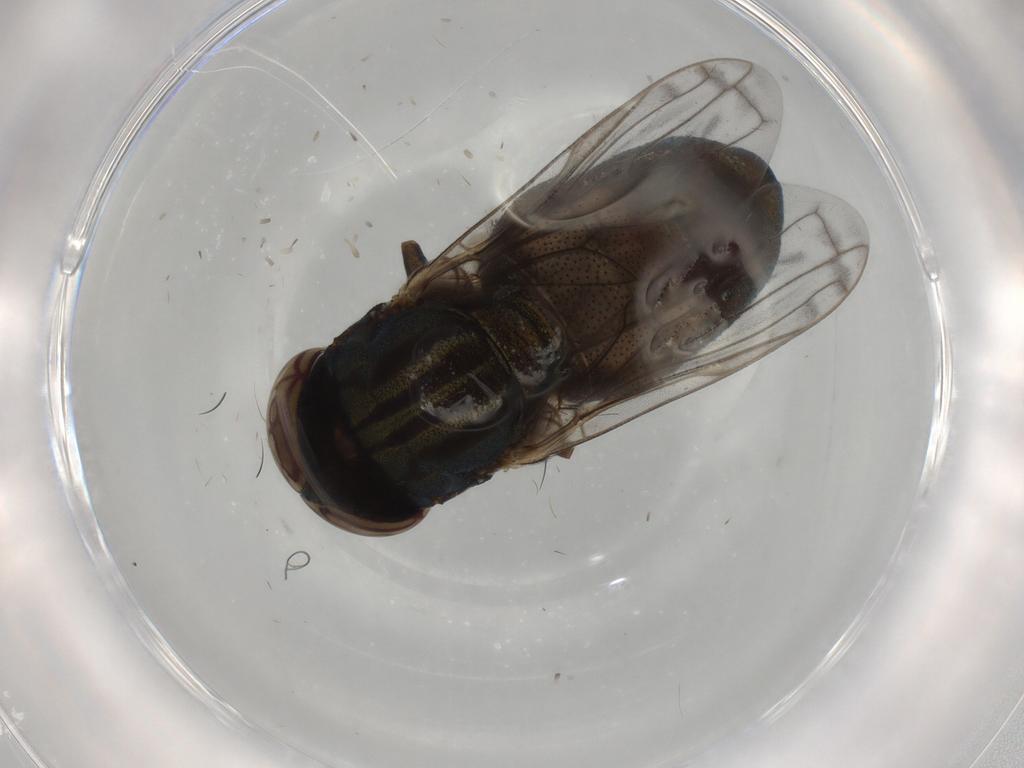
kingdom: Animalia
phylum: Arthropoda
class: Insecta
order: Diptera
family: Syrphidae
